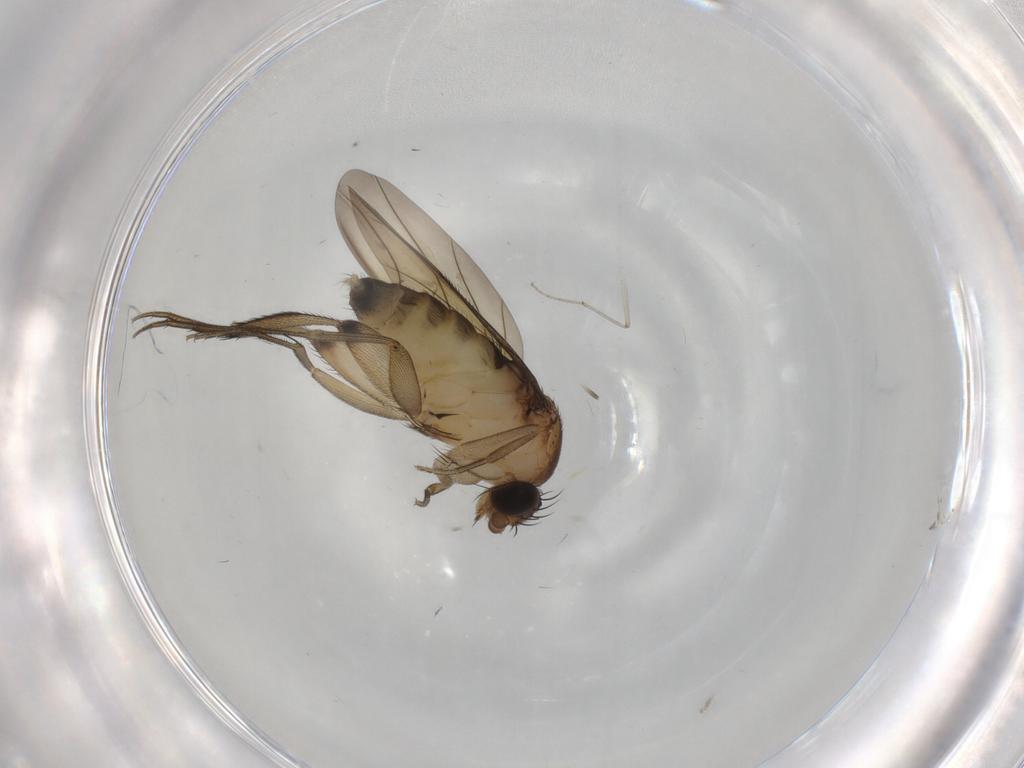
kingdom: Animalia
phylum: Arthropoda
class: Insecta
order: Diptera
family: Chironomidae
